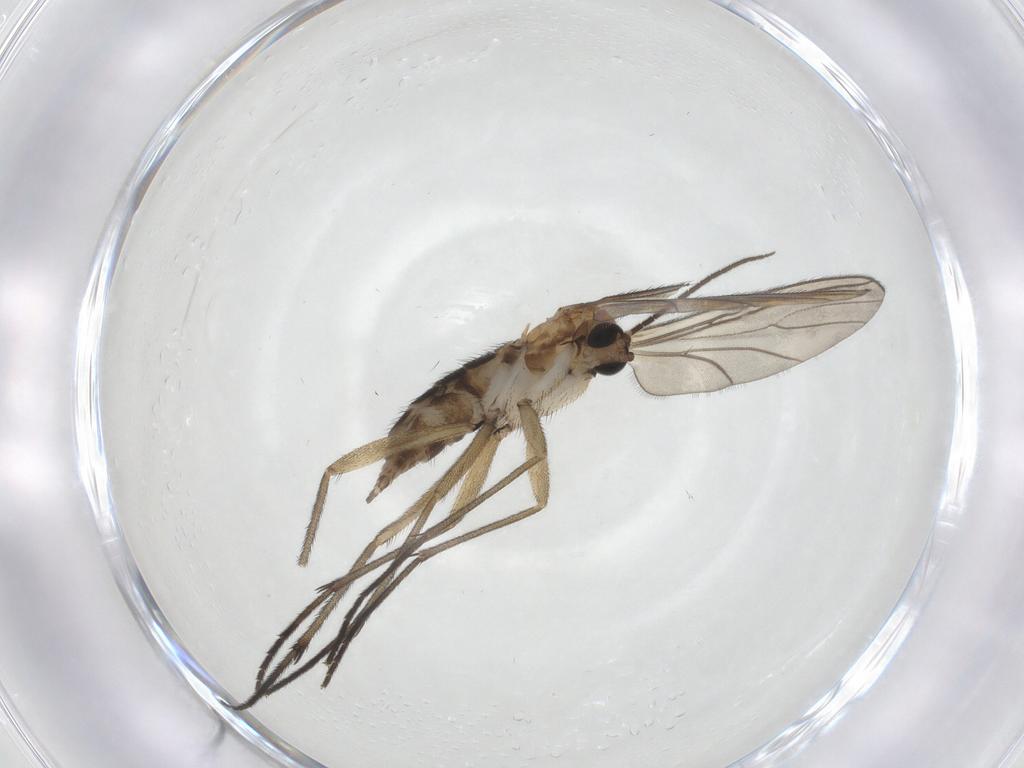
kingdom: Animalia
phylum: Arthropoda
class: Insecta
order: Diptera
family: Sciaridae
